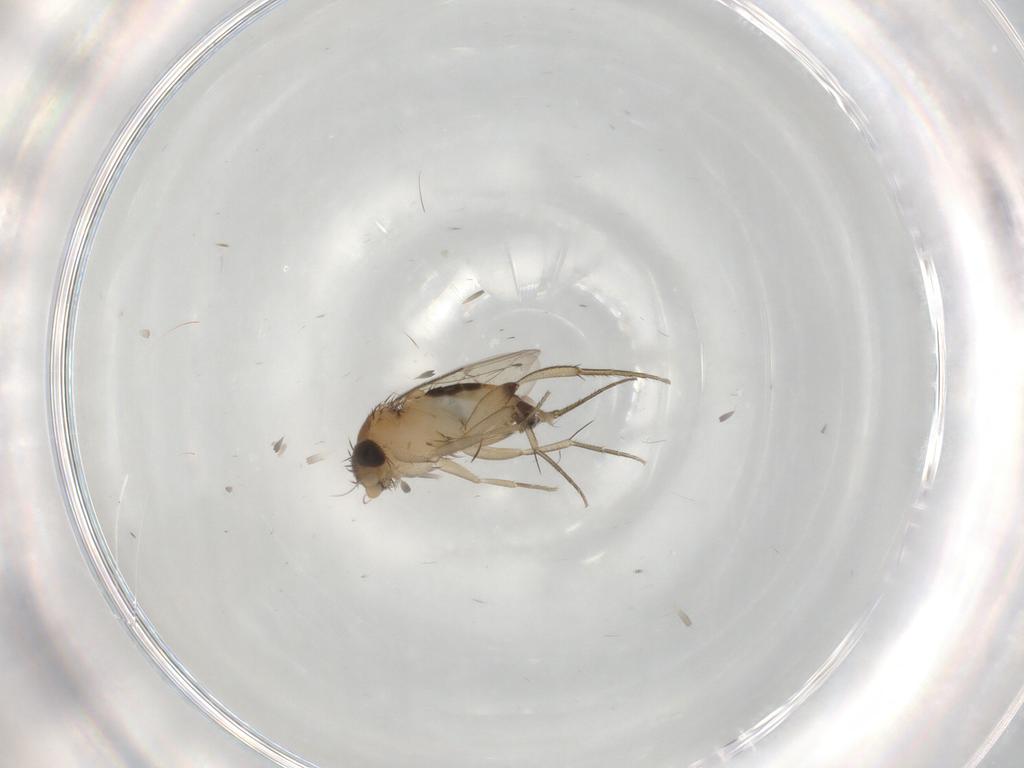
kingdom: Animalia
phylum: Arthropoda
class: Insecta
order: Diptera
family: Phoridae
